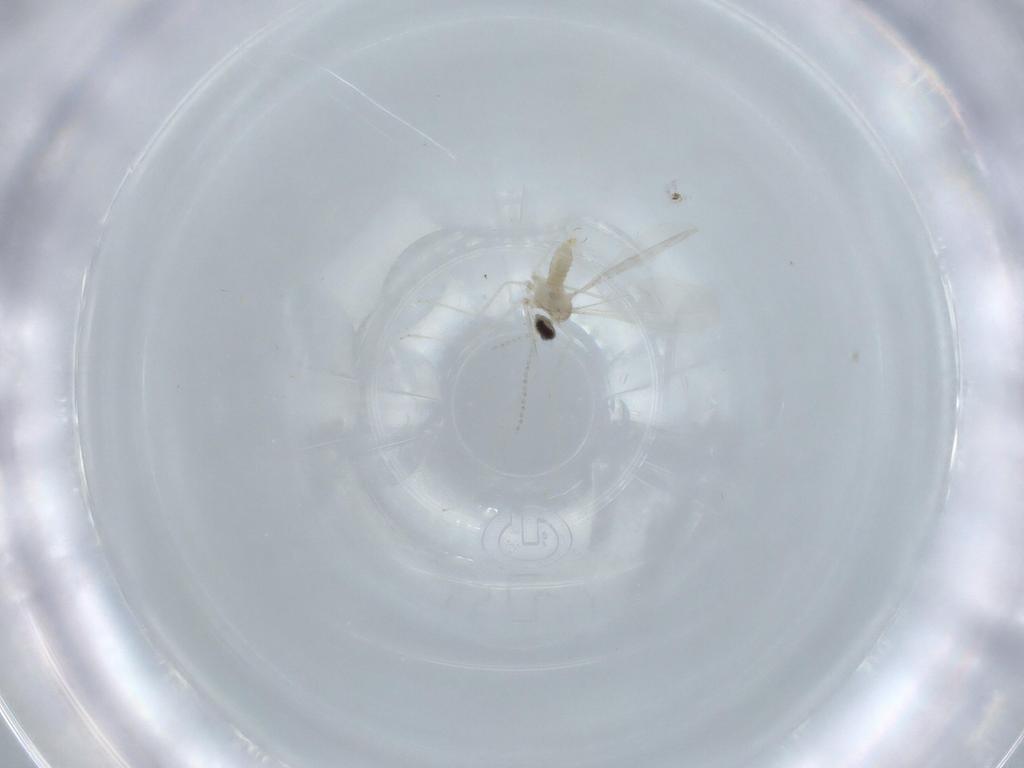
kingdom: Animalia
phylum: Arthropoda
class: Insecta
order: Diptera
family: Cecidomyiidae
